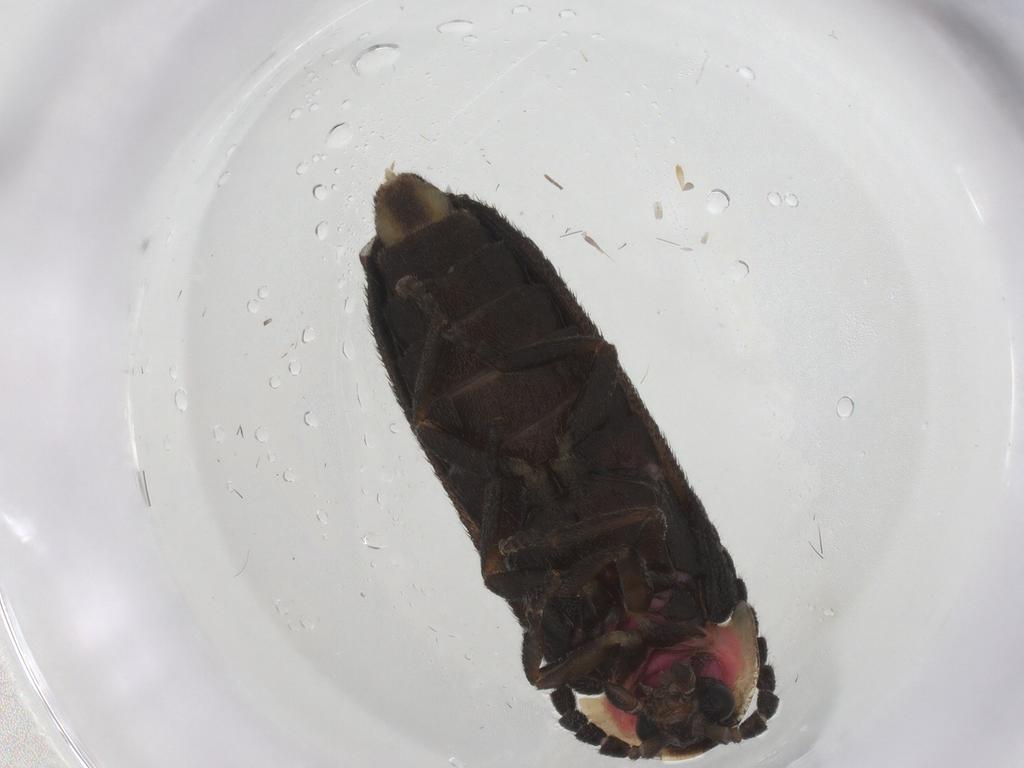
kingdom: Animalia
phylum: Arthropoda
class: Insecta
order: Coleoptera
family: Lampyridae
